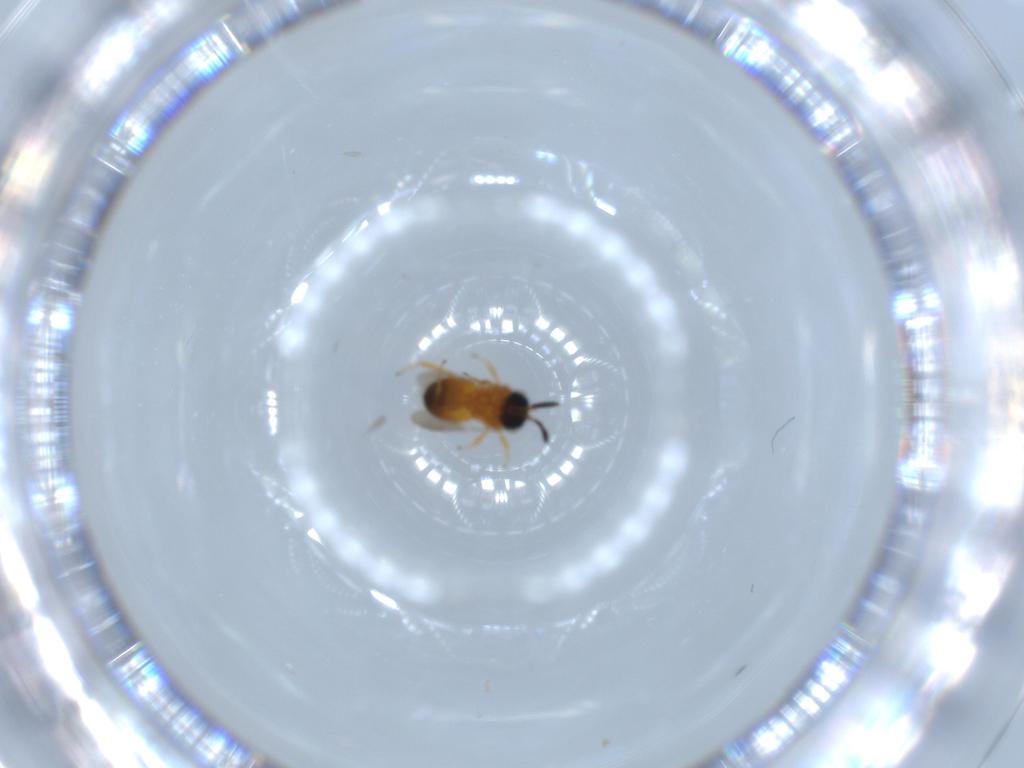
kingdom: Animalia
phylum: Arthropoda
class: Insecta
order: Hymenoptera
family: Scelionidae
